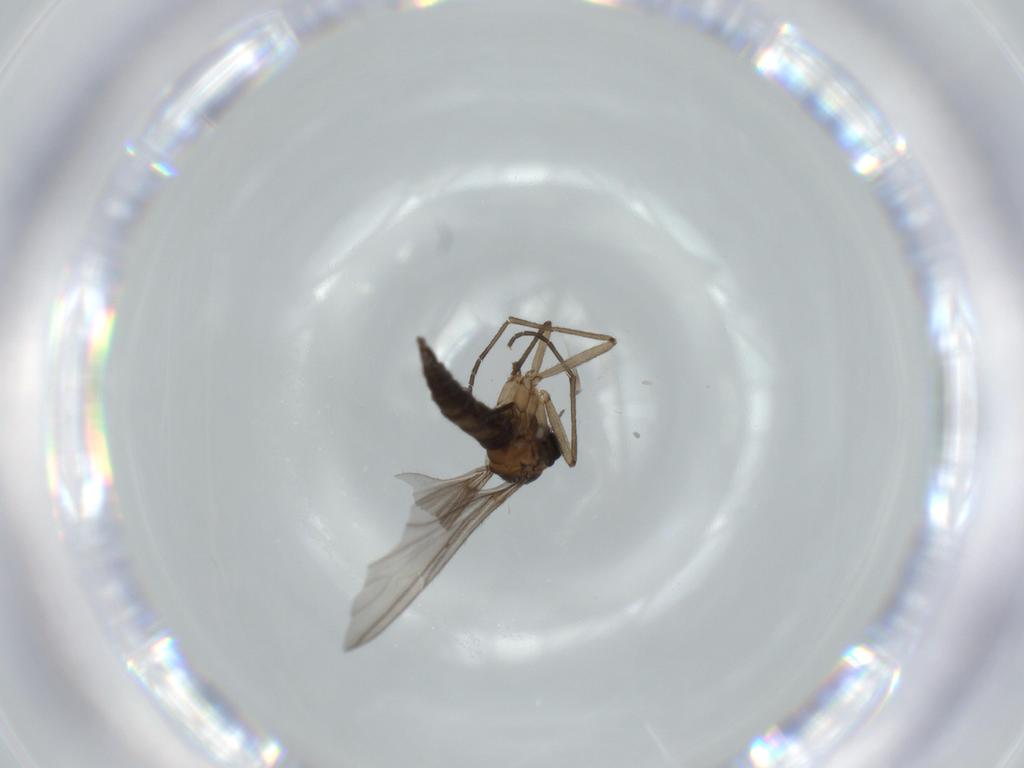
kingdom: Animalia
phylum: Arthropoda
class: Insecta
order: Diptera
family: Sciaridae
